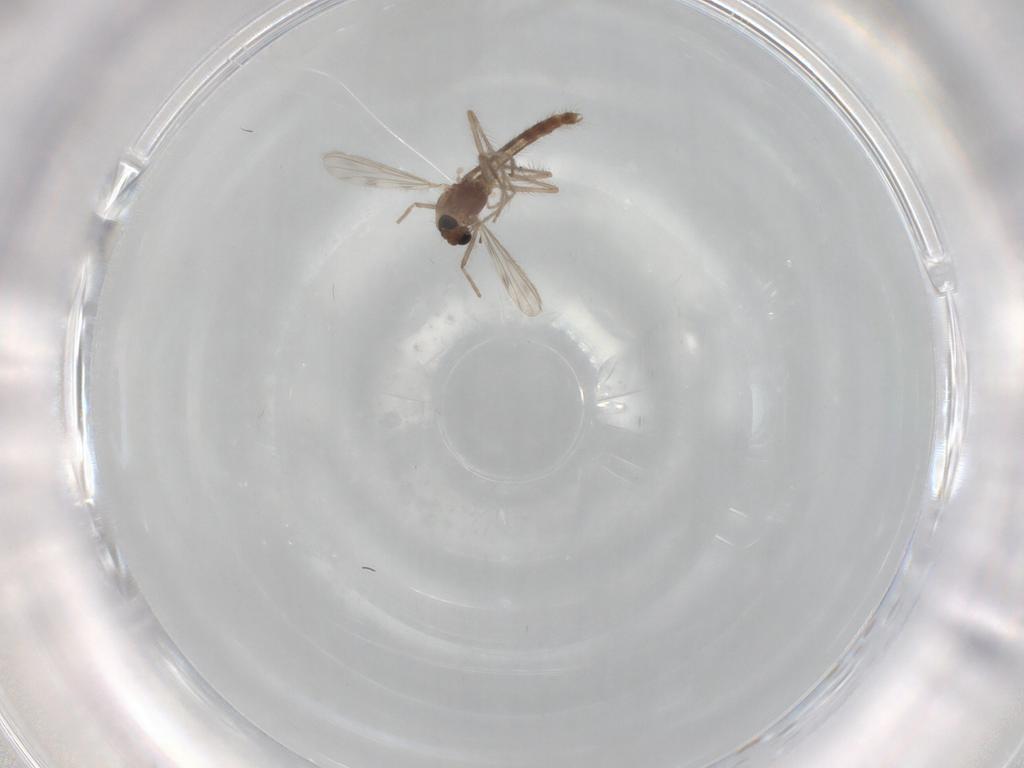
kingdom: Animalia
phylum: Arthropoda
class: Insecta
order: Diptera
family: Chironomidae
